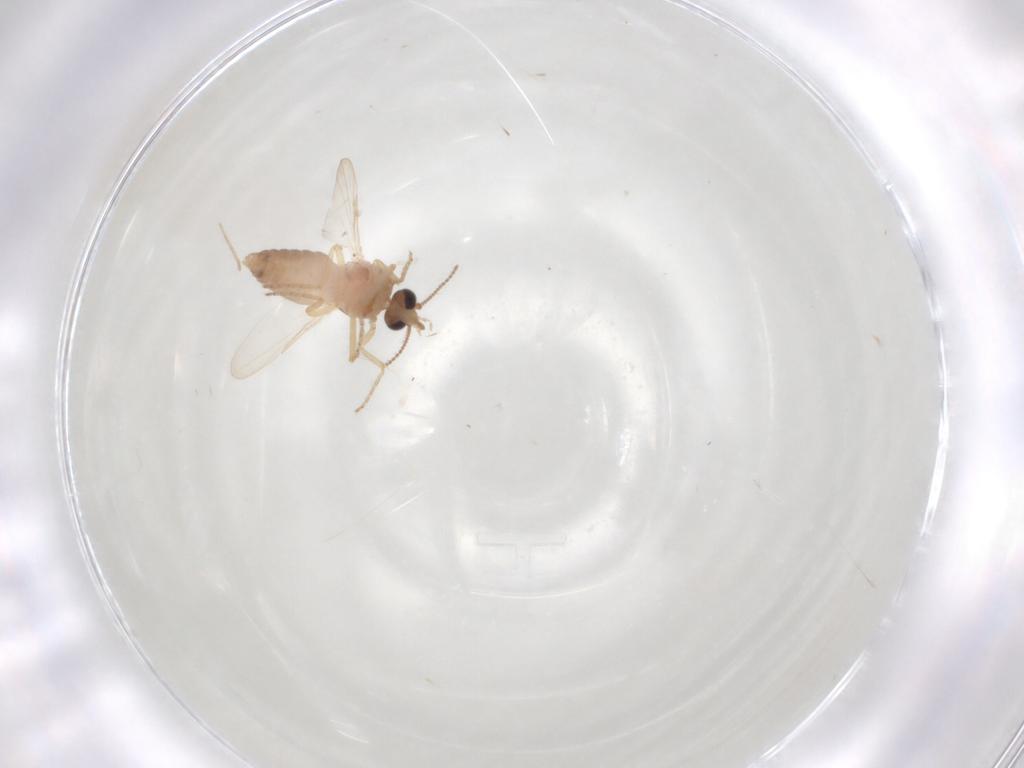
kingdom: Animalia
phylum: Arthropoda
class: Insecta
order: Diptera
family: Ceratopogonidae
